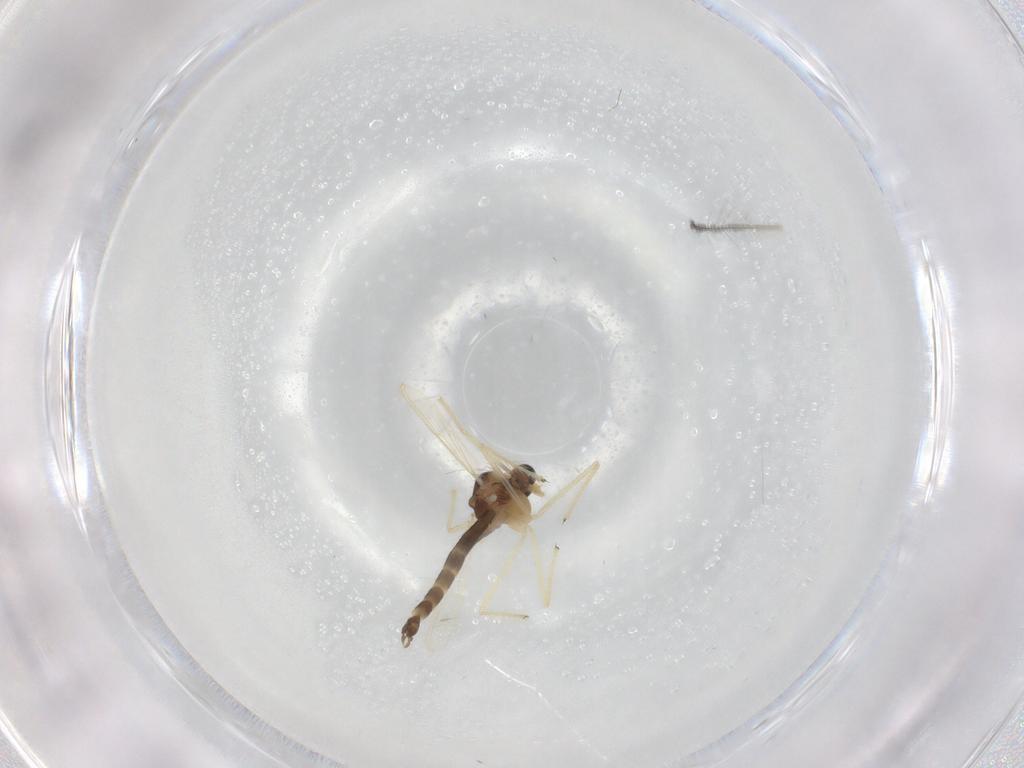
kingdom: Animalia
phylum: Arthropoda
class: Insecta
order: Diptera
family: Chironomidae
